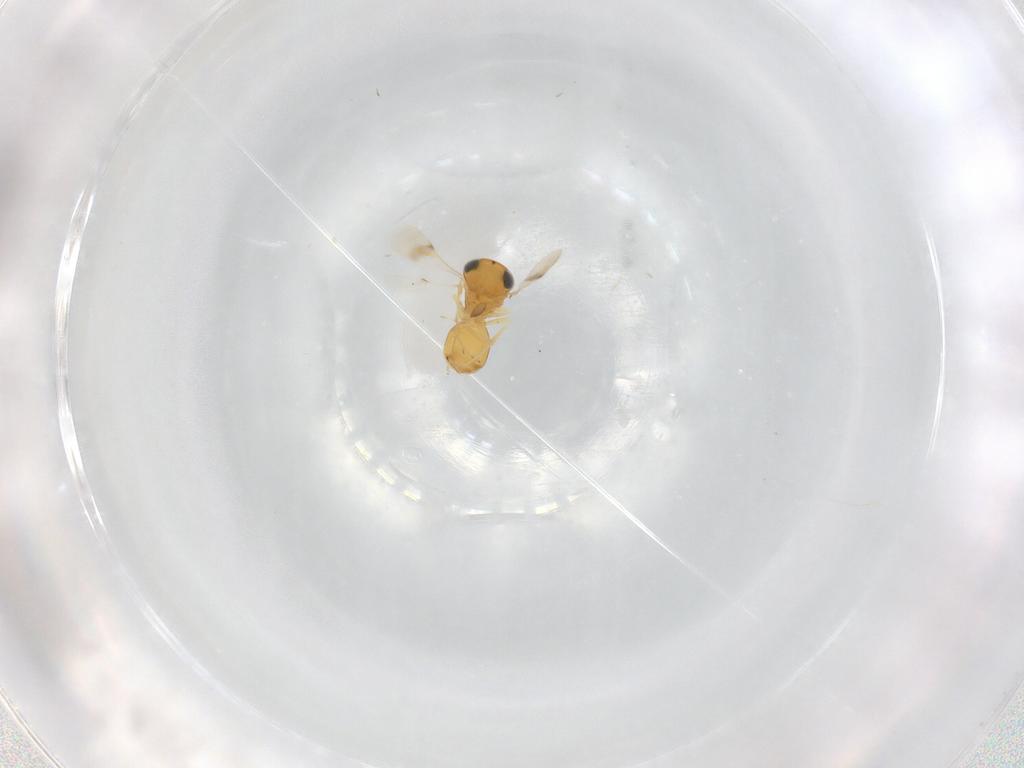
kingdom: Animalia
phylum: Arthropoda
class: Insecta
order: Hymenoptera
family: Scelionidae
